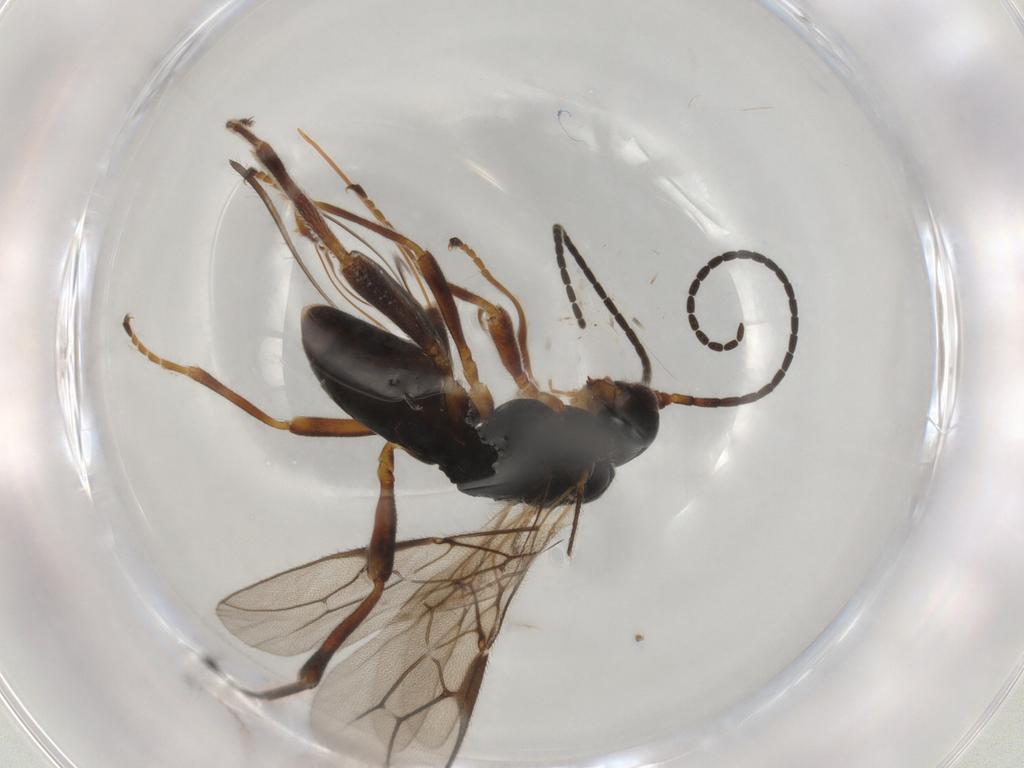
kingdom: Animalia
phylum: Arthropoda
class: Insecta
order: Hymenoptera
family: Braconidae
